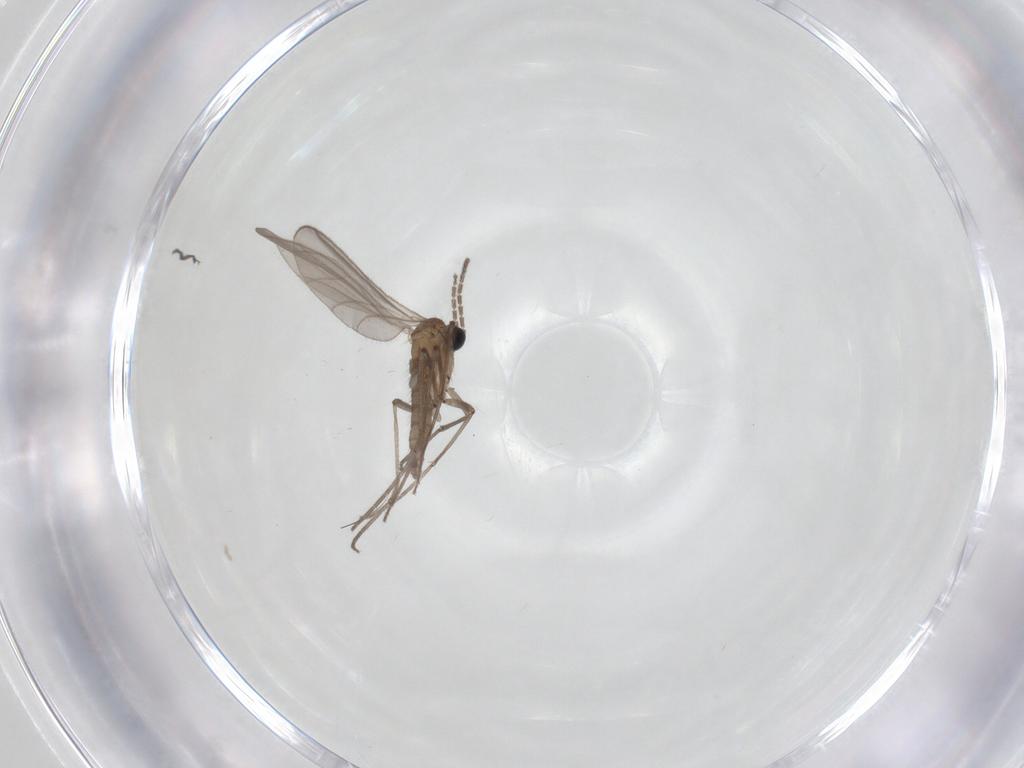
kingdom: Animalia
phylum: Arthropoda
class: Insecta
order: Diptera
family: Sciaridae
